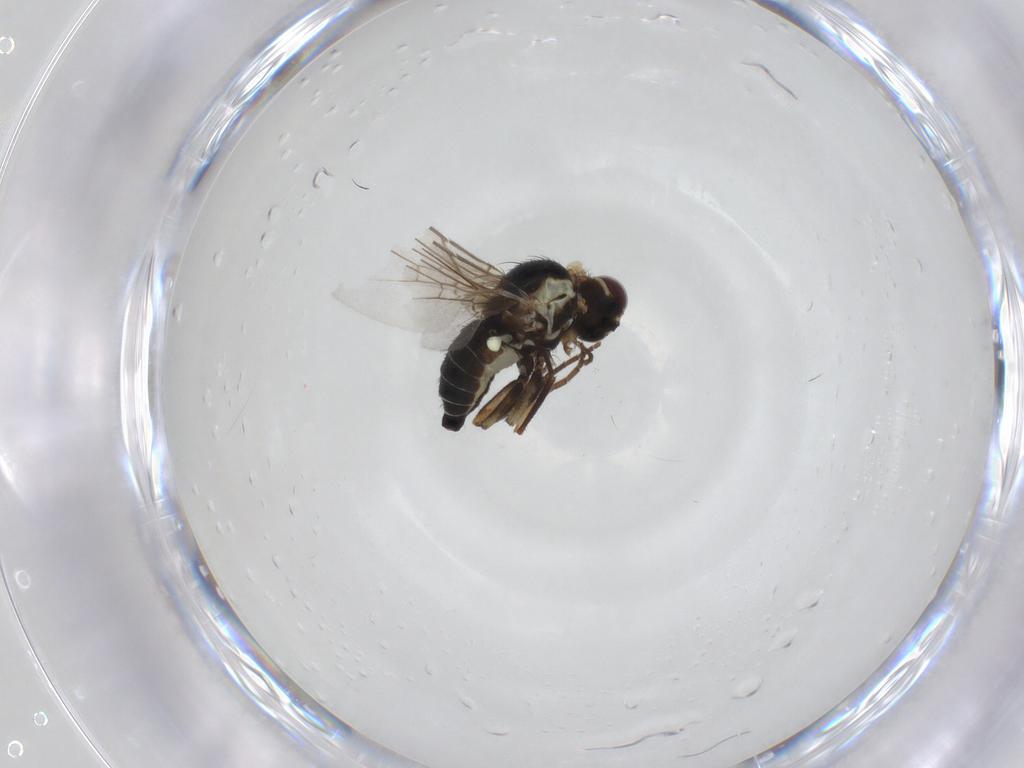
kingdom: Animalia
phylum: Arthropoda
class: Insecta
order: Diptera
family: Agromyzidae
